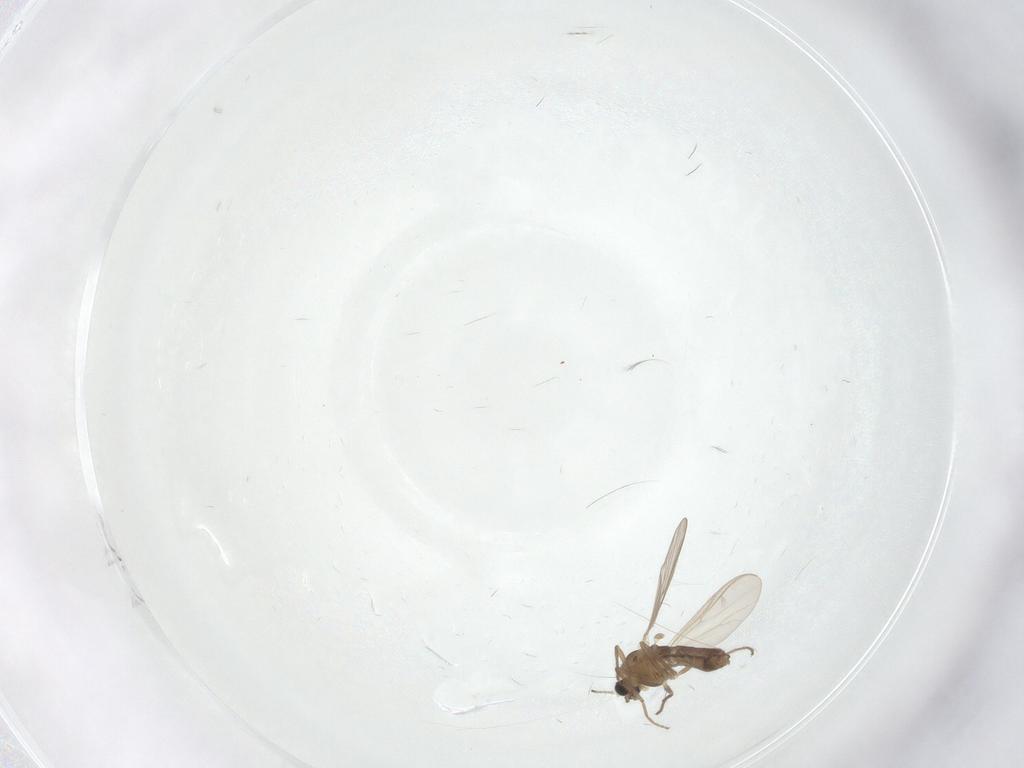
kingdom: Animalia
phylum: Arthropoda
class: Insecta
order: Diptera
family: Chironomidae
